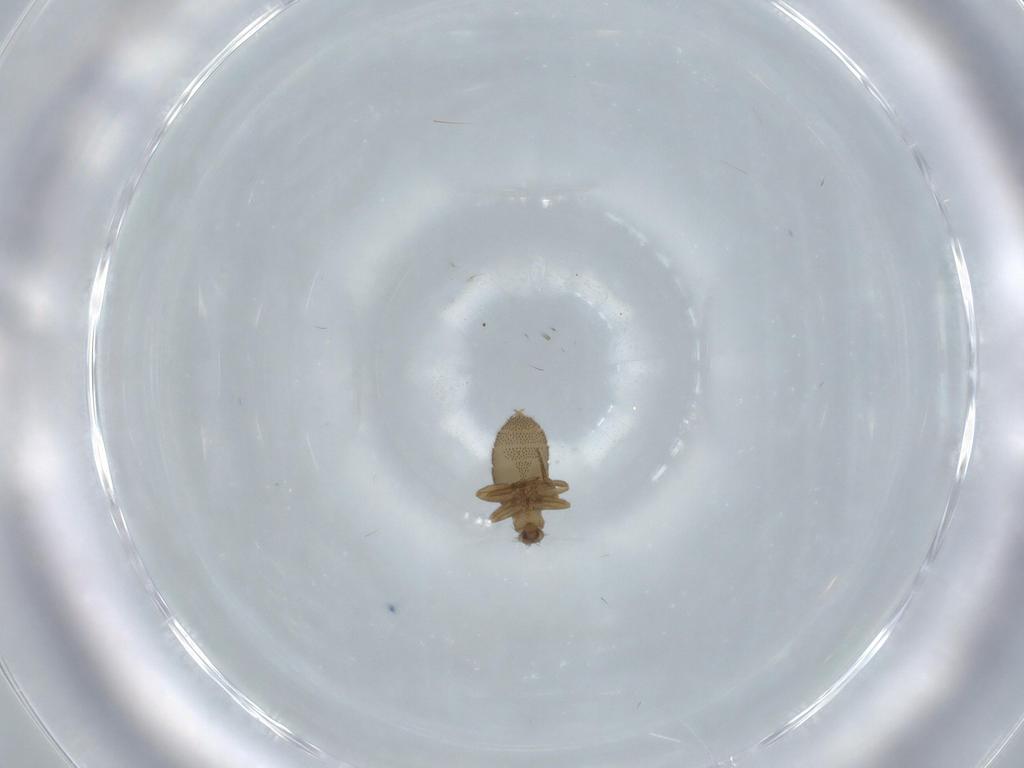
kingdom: Animalia
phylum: Arthropoda
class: Insecta
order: Diptera
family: Phoridae
